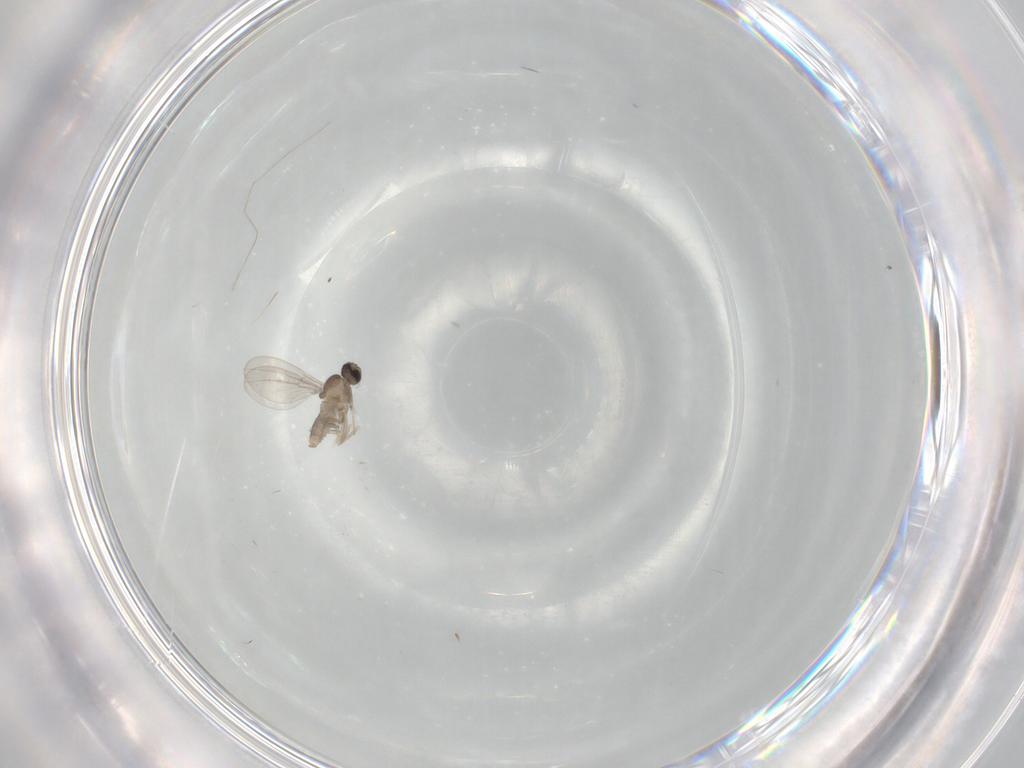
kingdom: Animalia
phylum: Arthropoda
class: Insecta
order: Diptera
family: Cecidomyiidae
